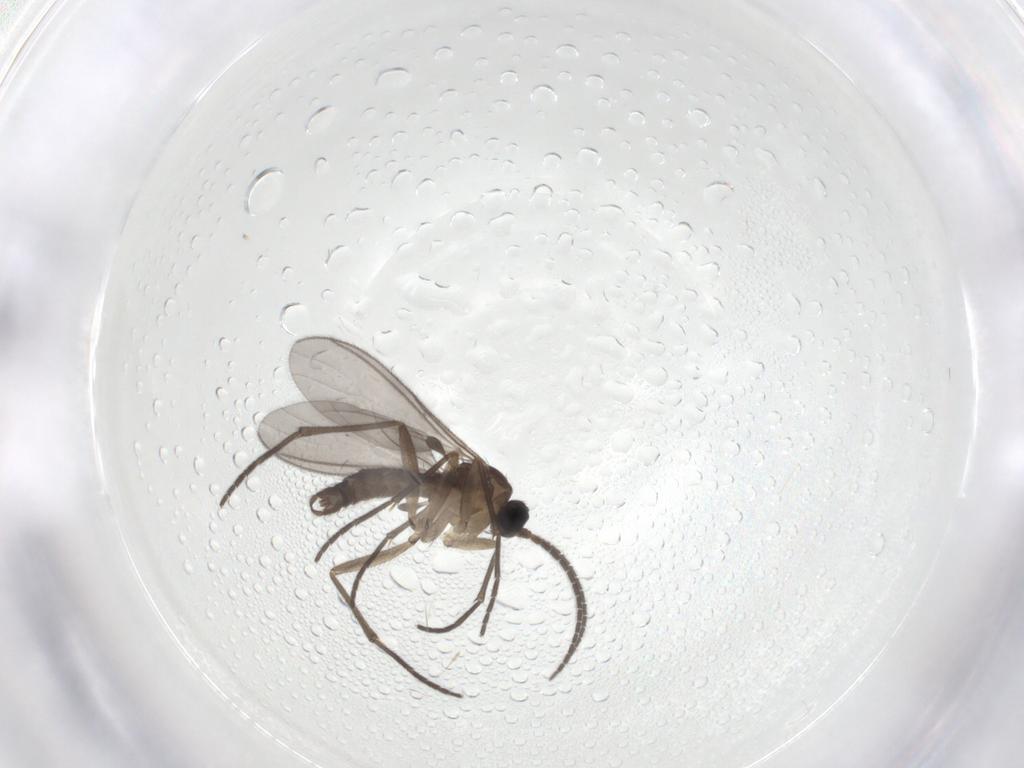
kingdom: Animalia
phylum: Arthropoda
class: Insecta
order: Diptera
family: Sciaridae
